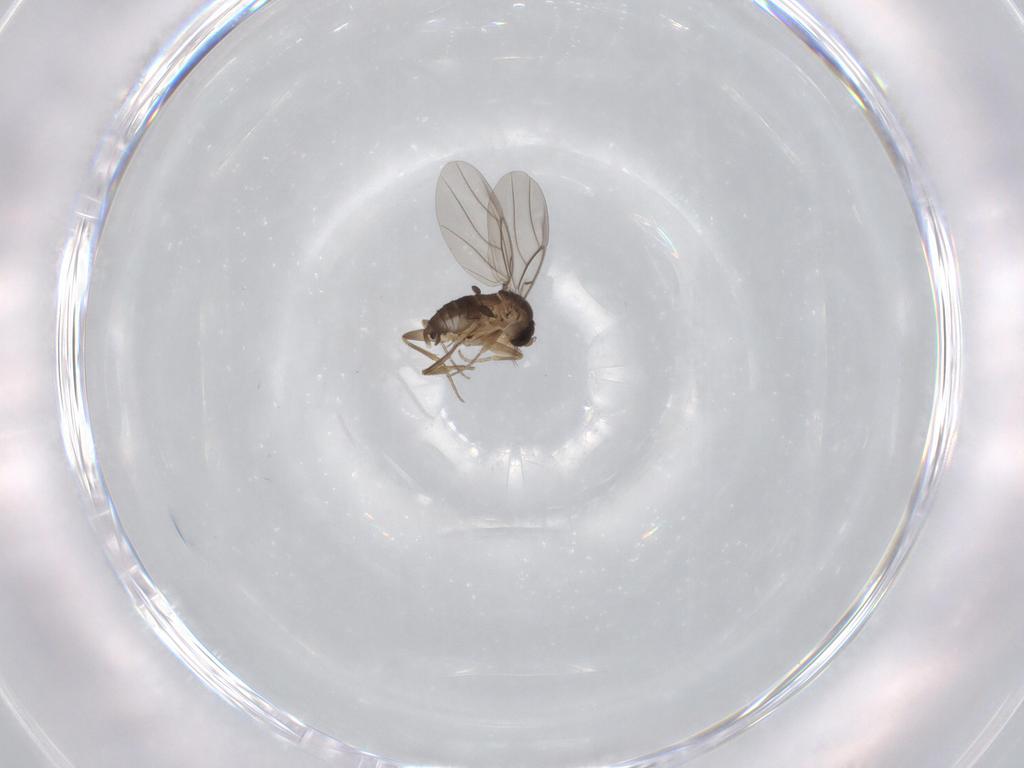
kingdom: Animalia
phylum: Arthropoda
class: Insecta
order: Diptera
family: Phoridae
